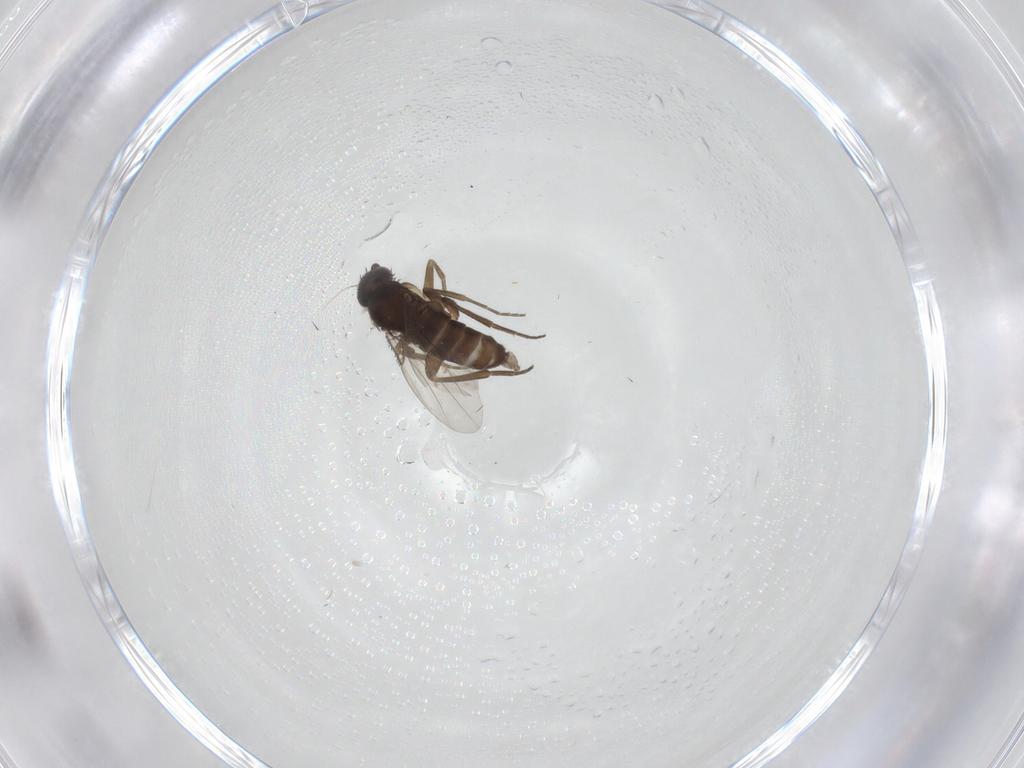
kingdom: Animalia
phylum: Arthropoda
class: Insecta
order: Diptera
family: Phoridae
